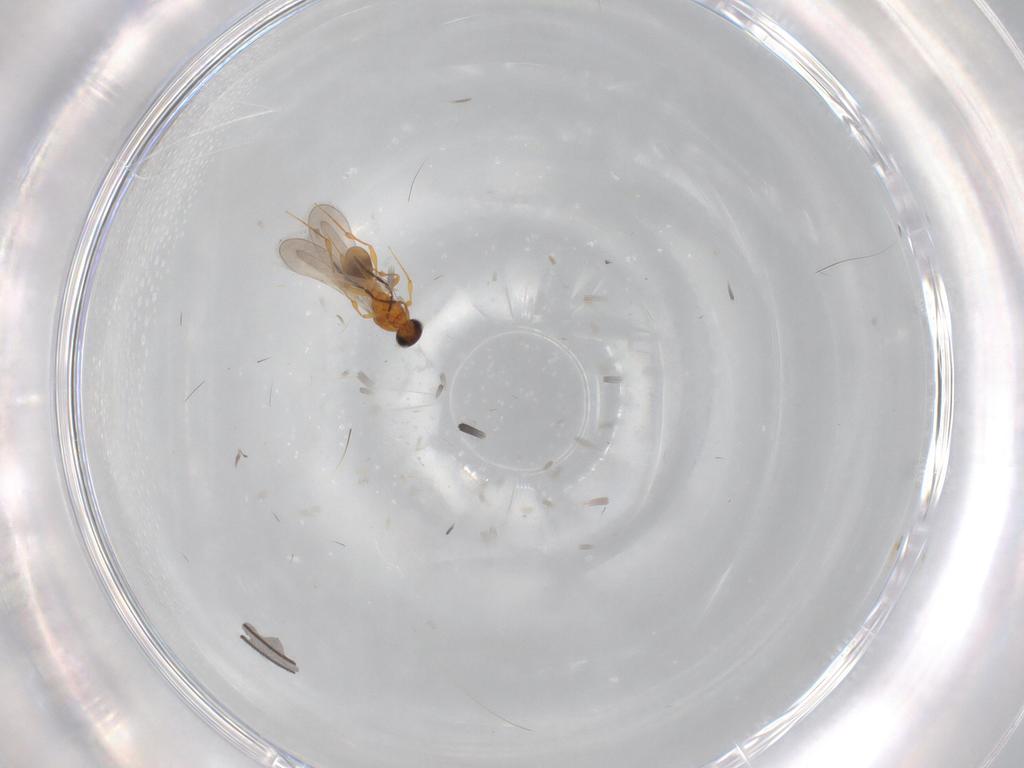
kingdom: Animalia
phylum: Arthropoda
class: Insecta
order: Hymenoptera
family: Platygastridae
